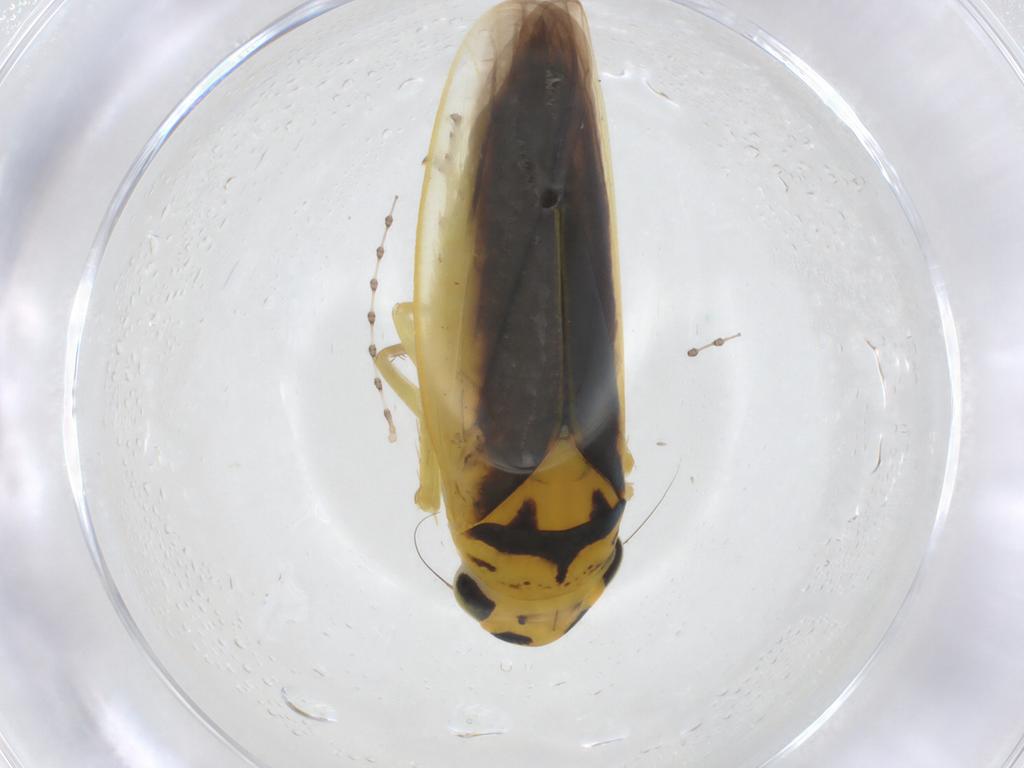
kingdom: Animalia
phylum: Arthropoda
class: Insecta
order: Hemiptera
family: Cicadellidae
